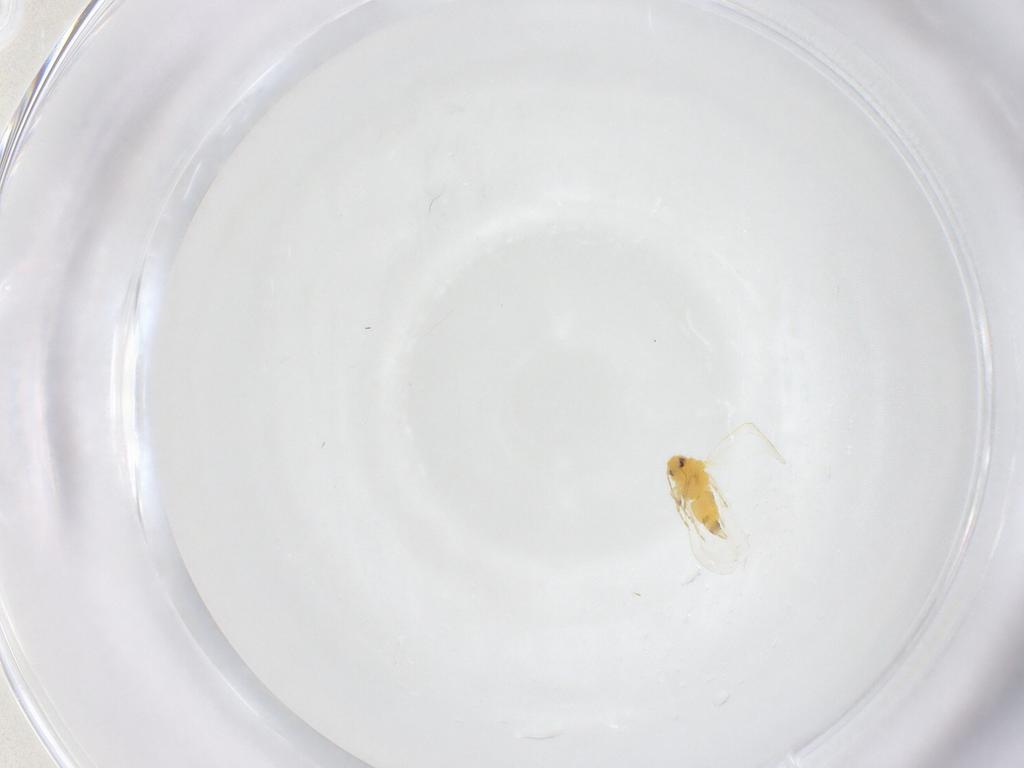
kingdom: Animalia
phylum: Arthropoda
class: Insecta
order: Hemiptera
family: Aleyrodidae
